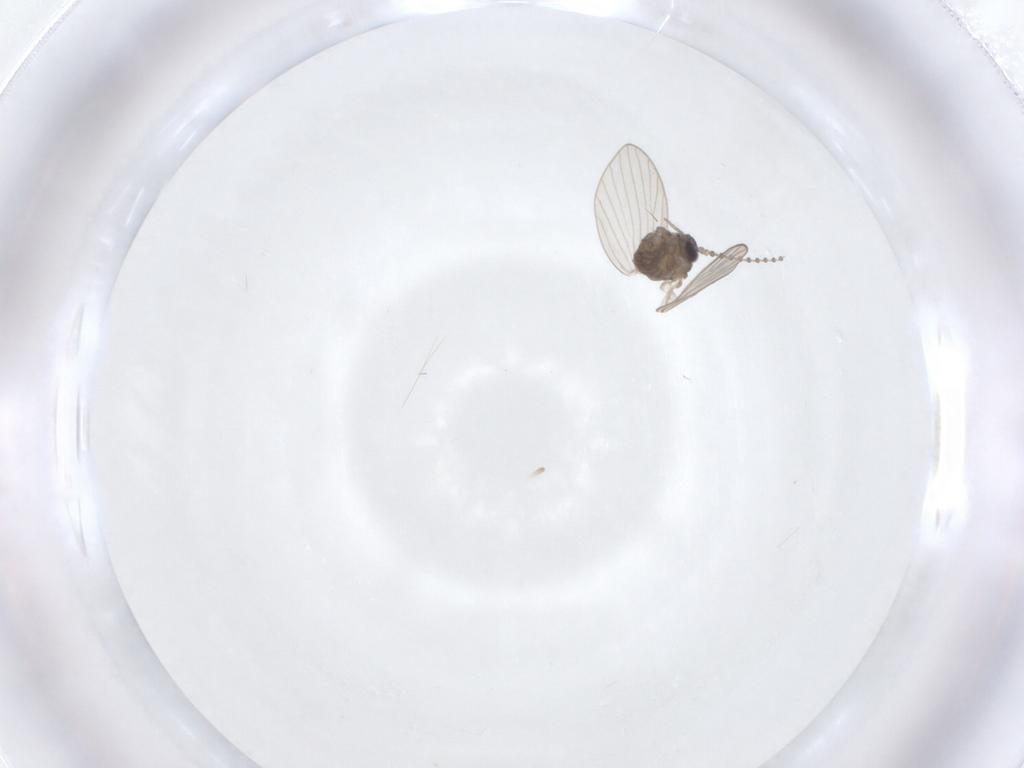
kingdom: Animalia
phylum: Arthropoda
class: Insecta
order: Diptera
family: Psychodidae
